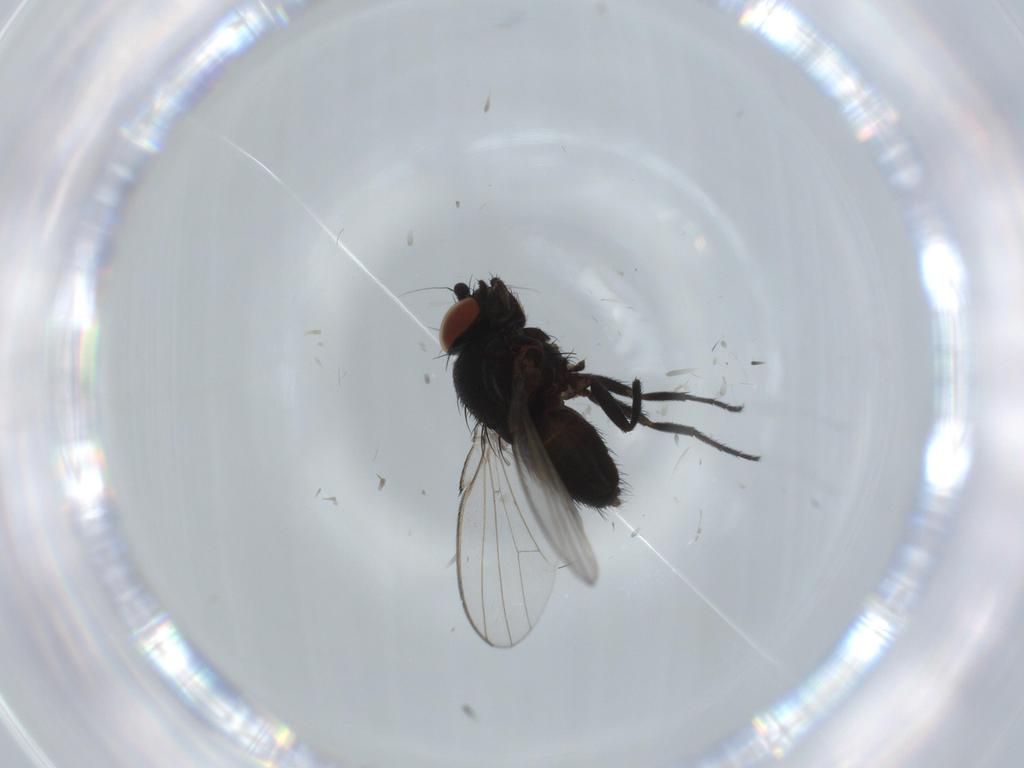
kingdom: Animalia
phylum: Arthropoda
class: Insecta
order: Diptera
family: Milichiidae
